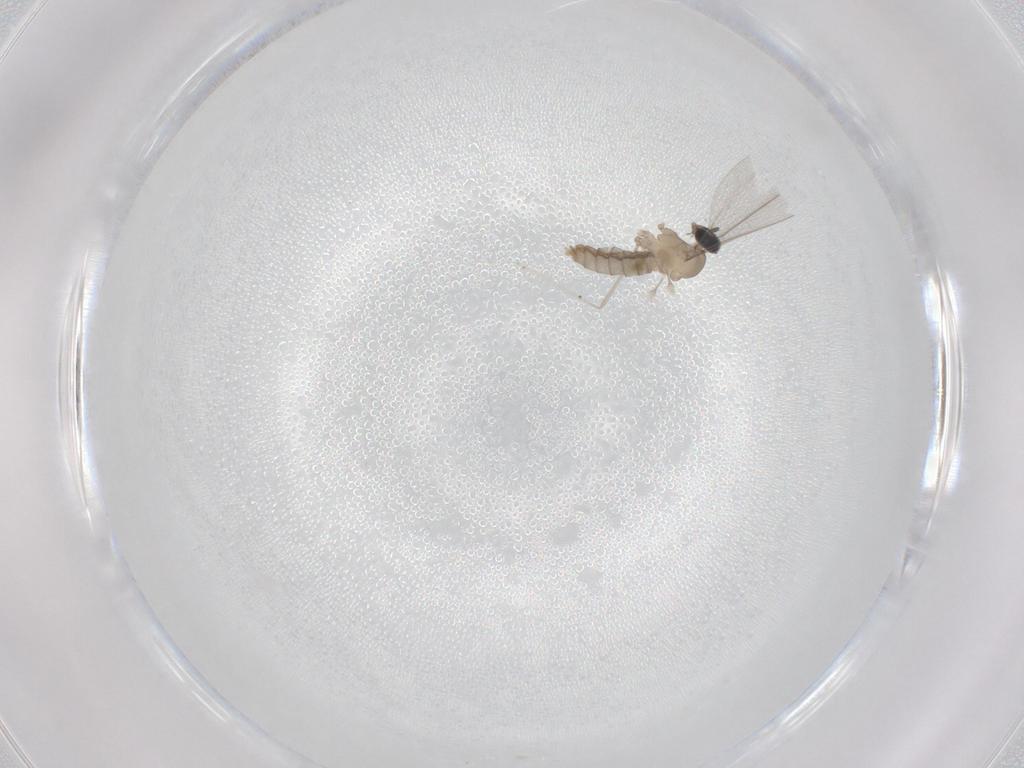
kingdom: Animalia
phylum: Arthropoda
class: Insecta
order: Diptera
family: Cecidomyiidae
